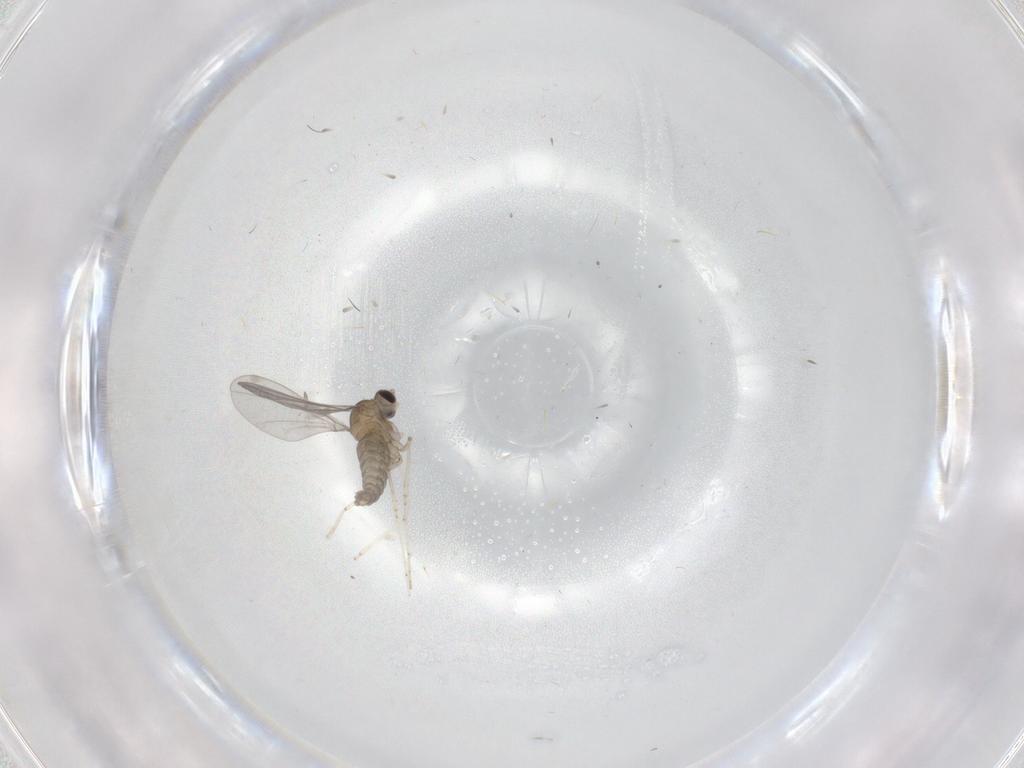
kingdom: Animalia
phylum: Arthropoda
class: Insecta
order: Diptera
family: Cecidomyiidae
